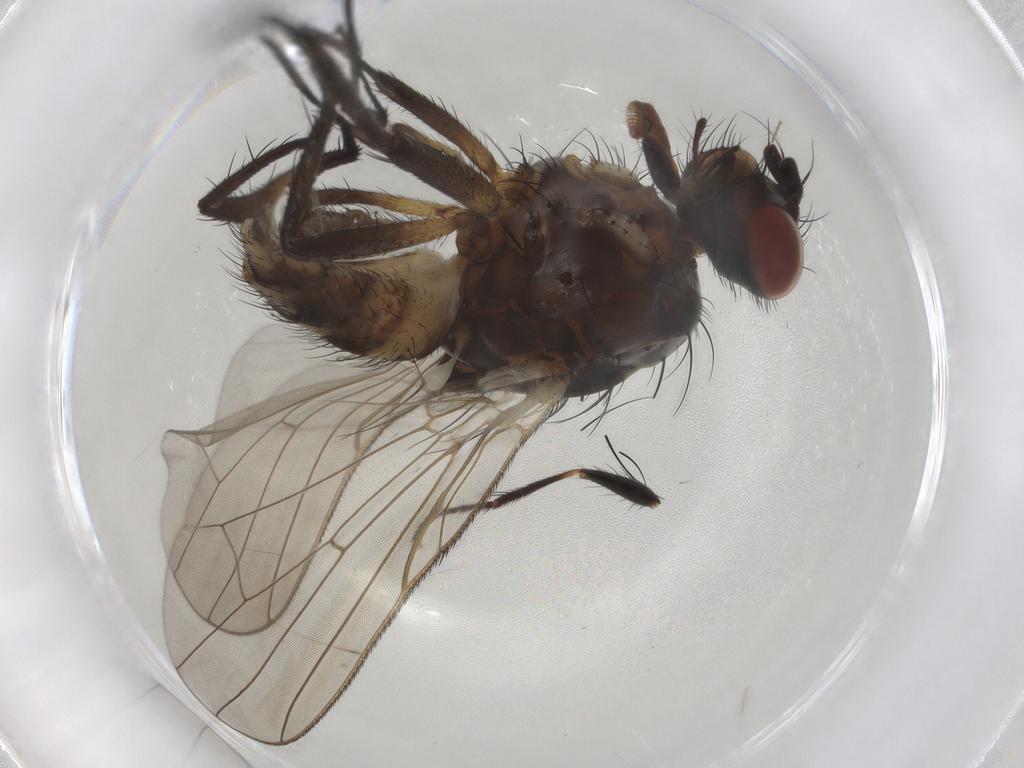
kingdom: Animalia
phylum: Arthropoda
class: Insecta
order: Diptera
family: Anthomyiidae
